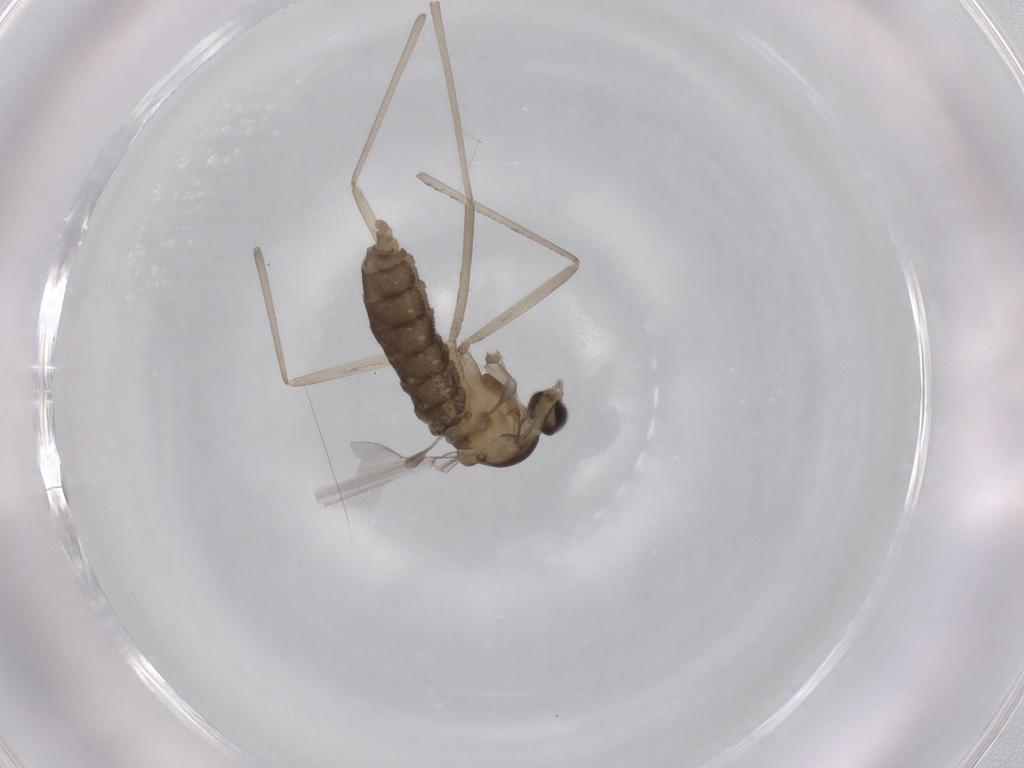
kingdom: Animalia
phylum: Arthropoda
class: Insecta
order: Diptera
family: Cecidomyiidae
